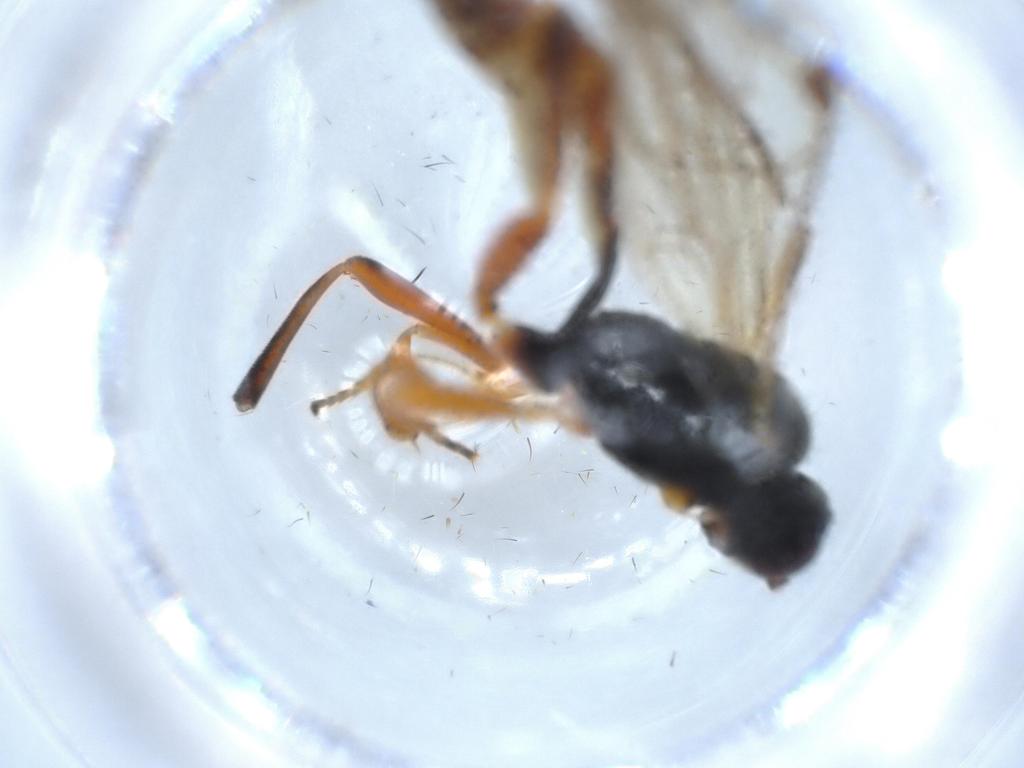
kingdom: Animalia
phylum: Arthropoda
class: Insecta
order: Hymenoptera
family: Ichneumonidae
